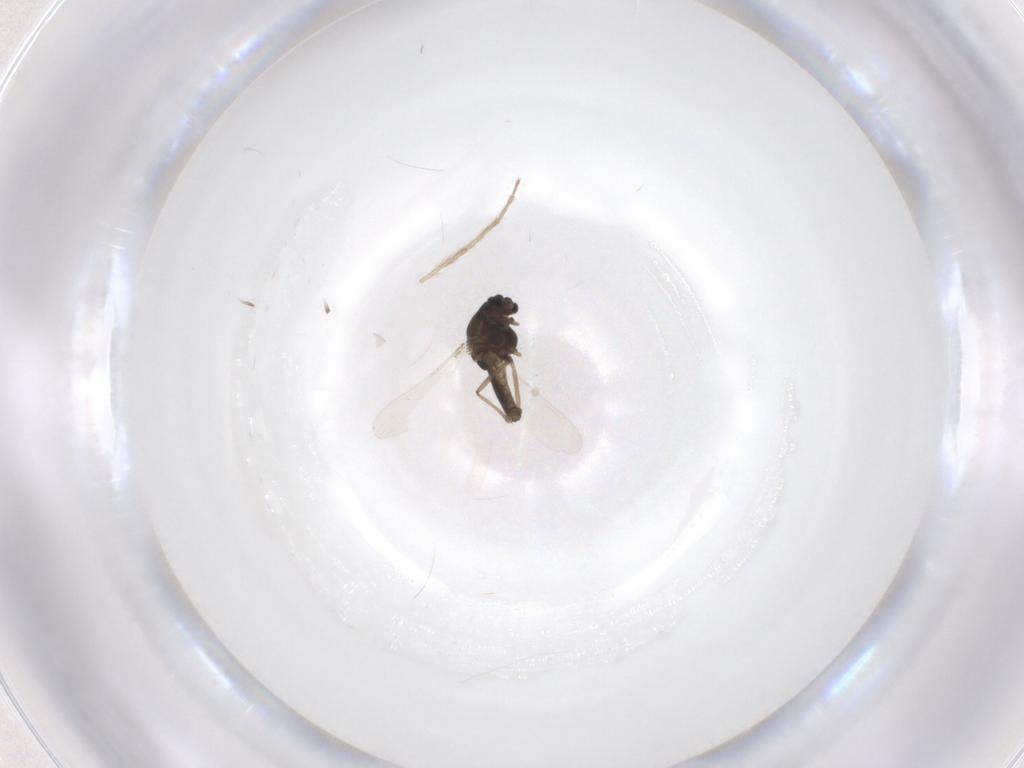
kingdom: Animalia
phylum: Arthropoda
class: Insecta
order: Diptera
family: Chironomidae
